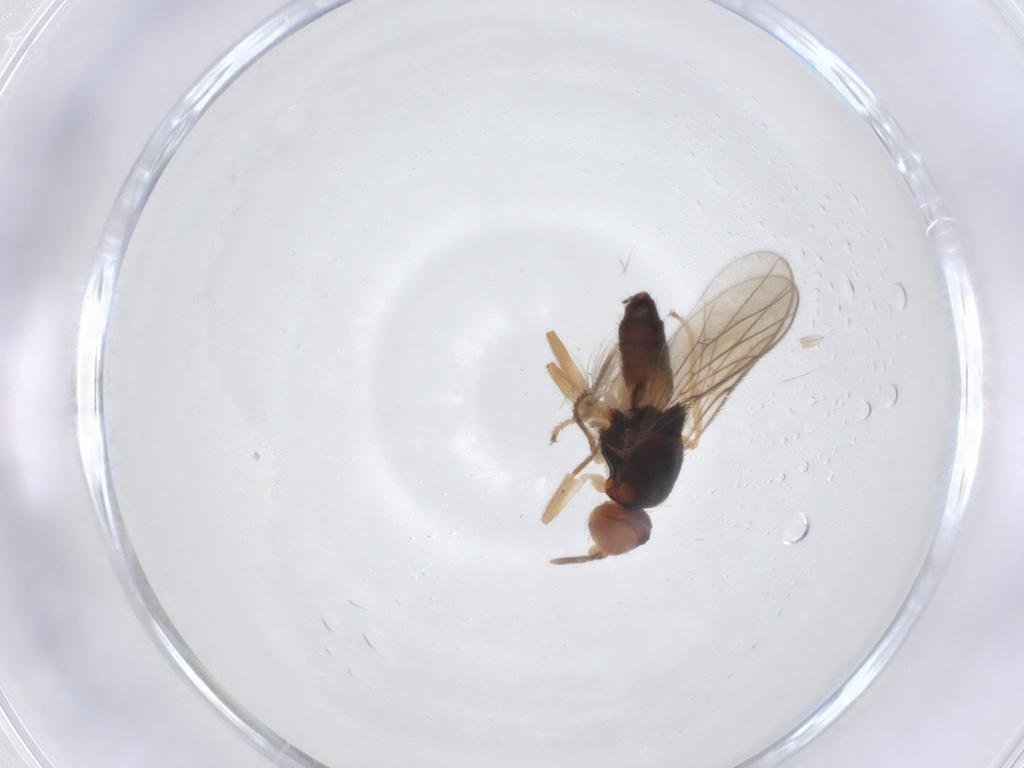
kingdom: Animalia
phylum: Arthropoda
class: Insecta
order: Diptera
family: Chloropidae
